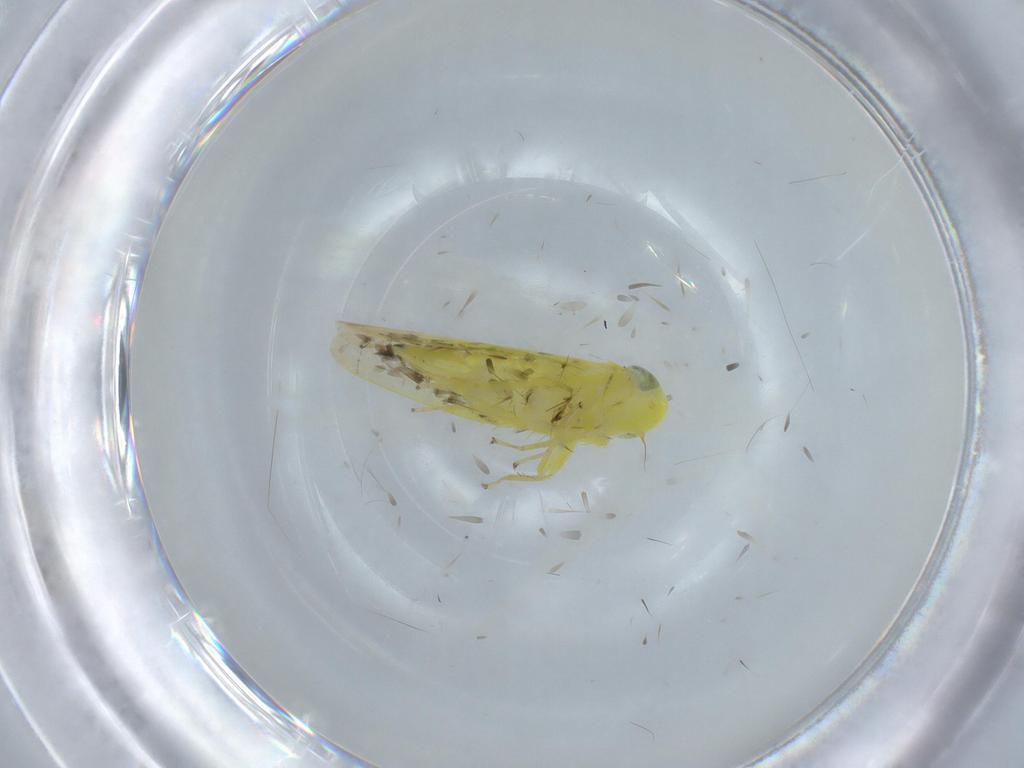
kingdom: Animalia
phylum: Arthropoda
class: Insecta
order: Hemiptera
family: Cicadellidae
